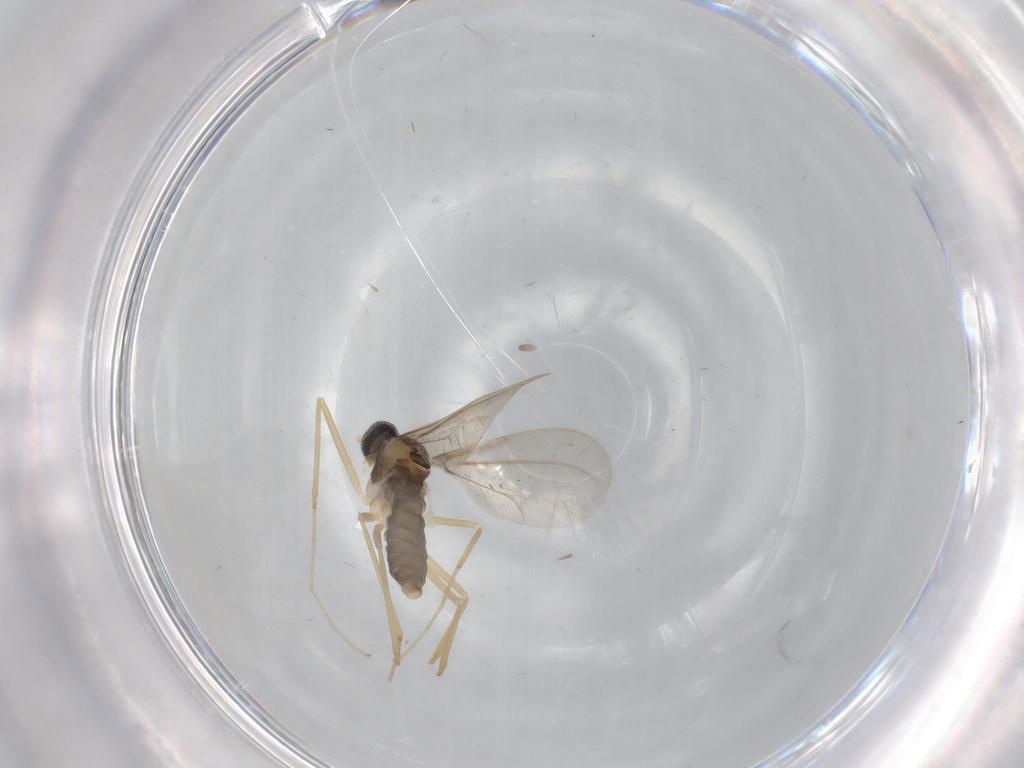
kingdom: Animalia
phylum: Arthropoda
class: Insecta
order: Diptera
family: Cecidomyiidae
